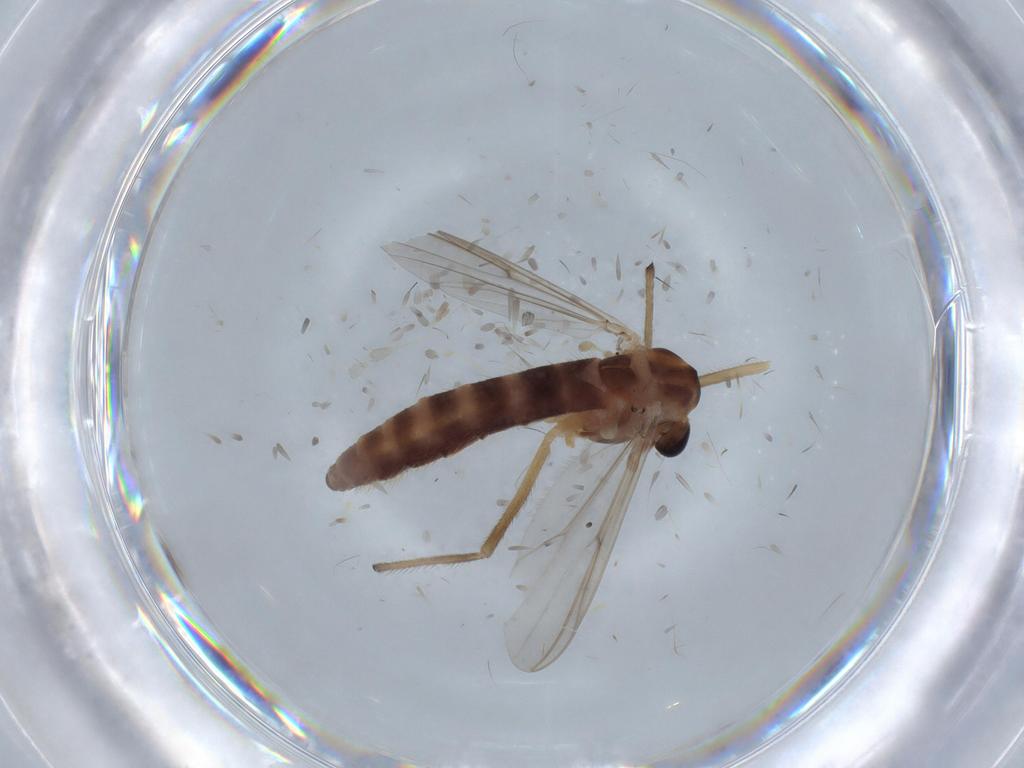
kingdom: Animalia
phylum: Arthropoda
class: Insecta
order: Diptera
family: Chironomidae
